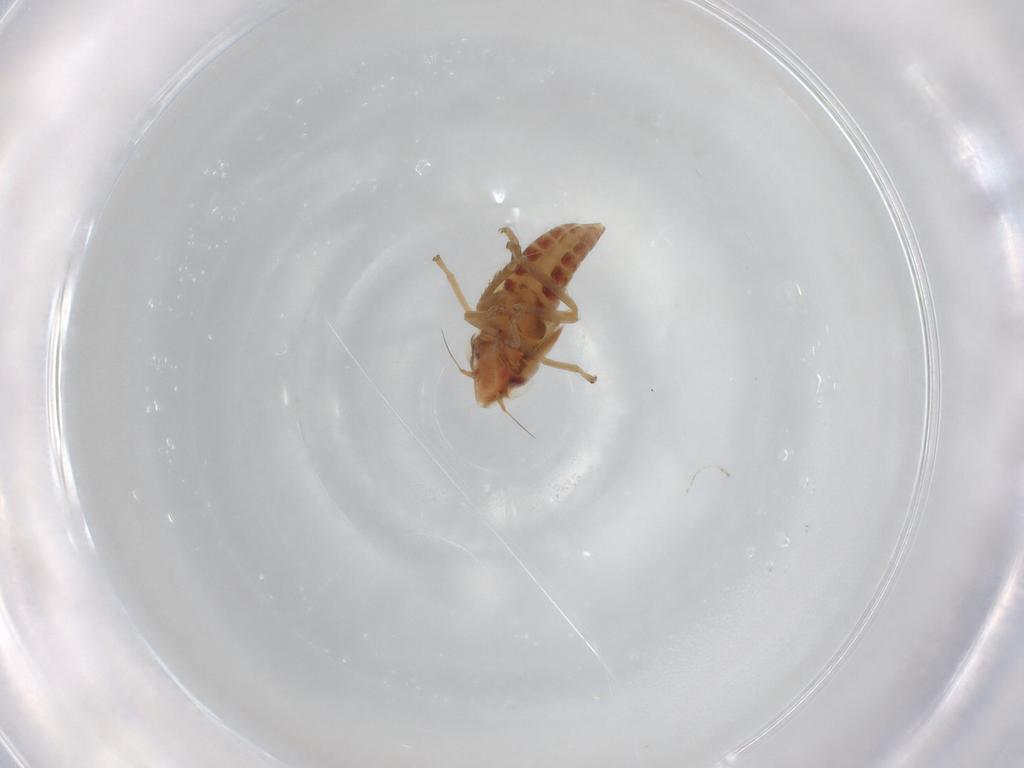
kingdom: Animalia
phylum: Arthropoda
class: Insecta
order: Hemiptera
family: Cicadellidae
